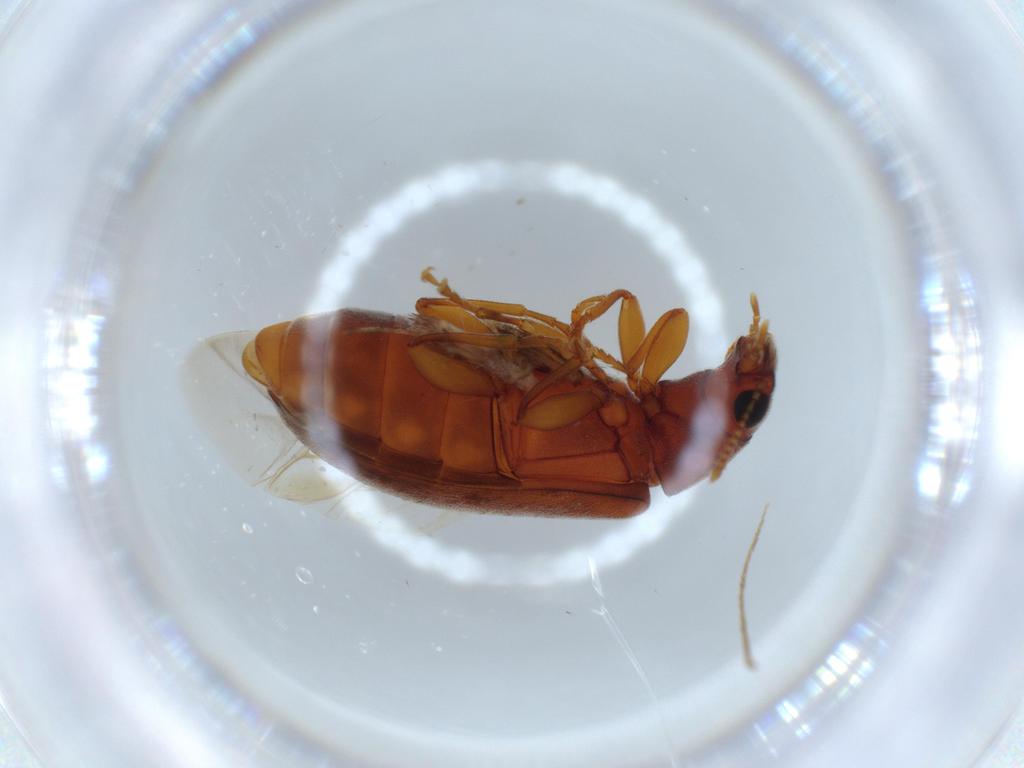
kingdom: Animalia
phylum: Arthropoda
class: Insecta
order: Coleoptera
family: Mycteridae
